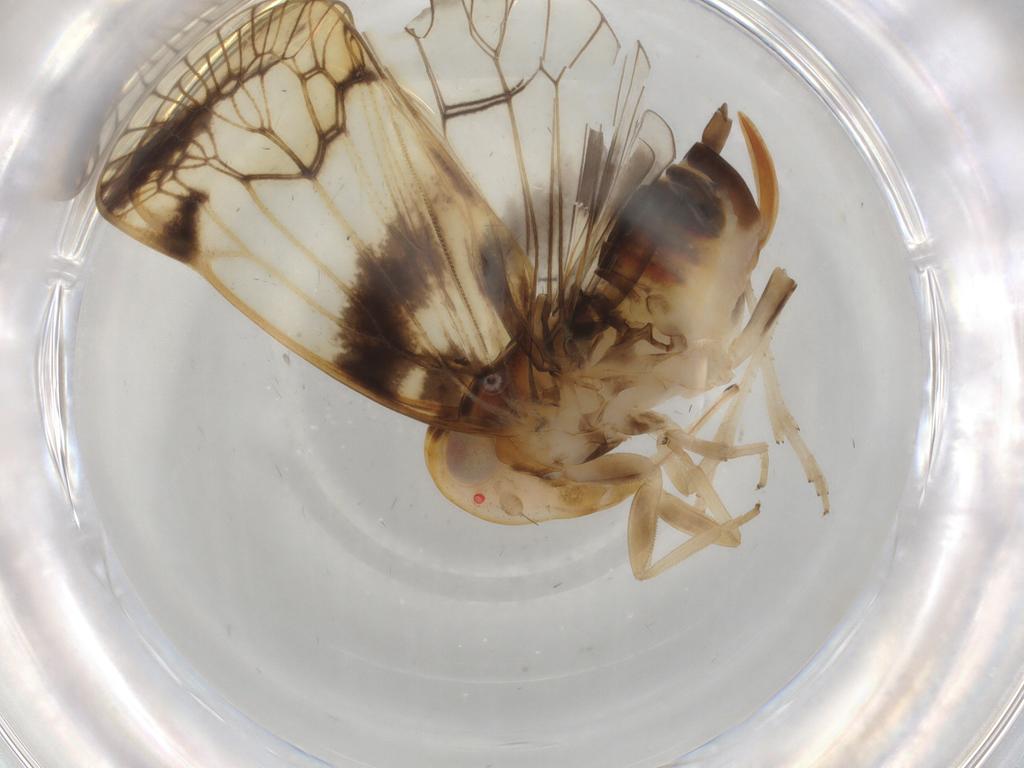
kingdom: Animalia
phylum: Arthropoda
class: Insecta
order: Hemiptera
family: Cixiidae
